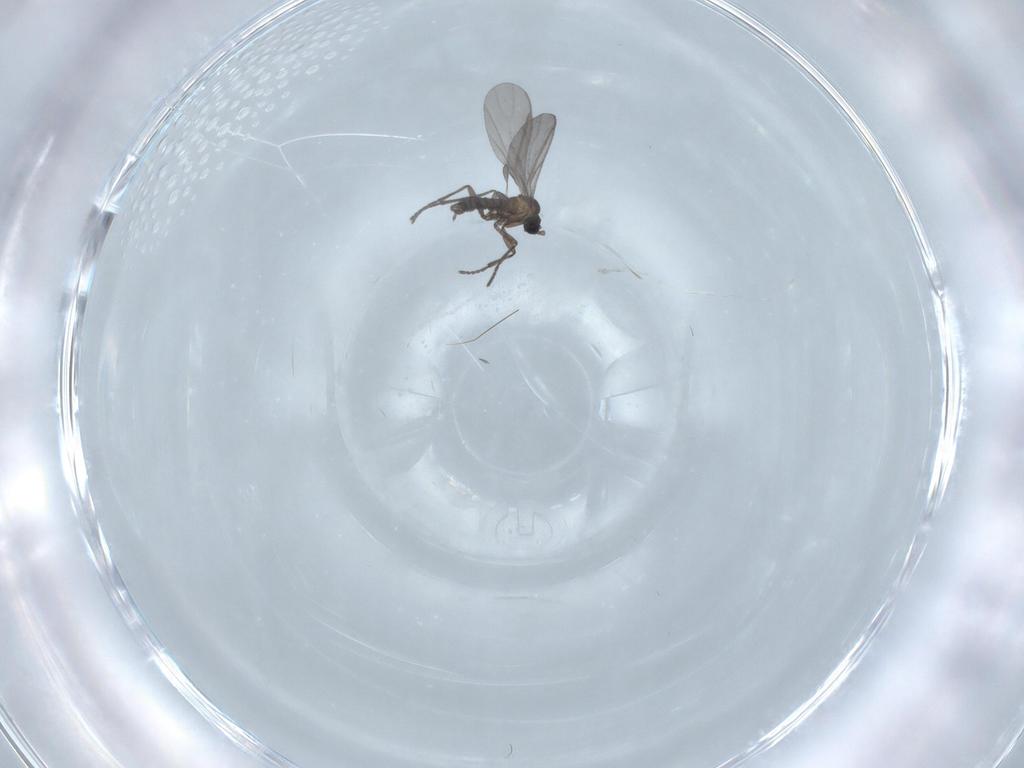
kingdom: Animalia
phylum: Arthropoda
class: Insecta
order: Diptera
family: Sciaridae
